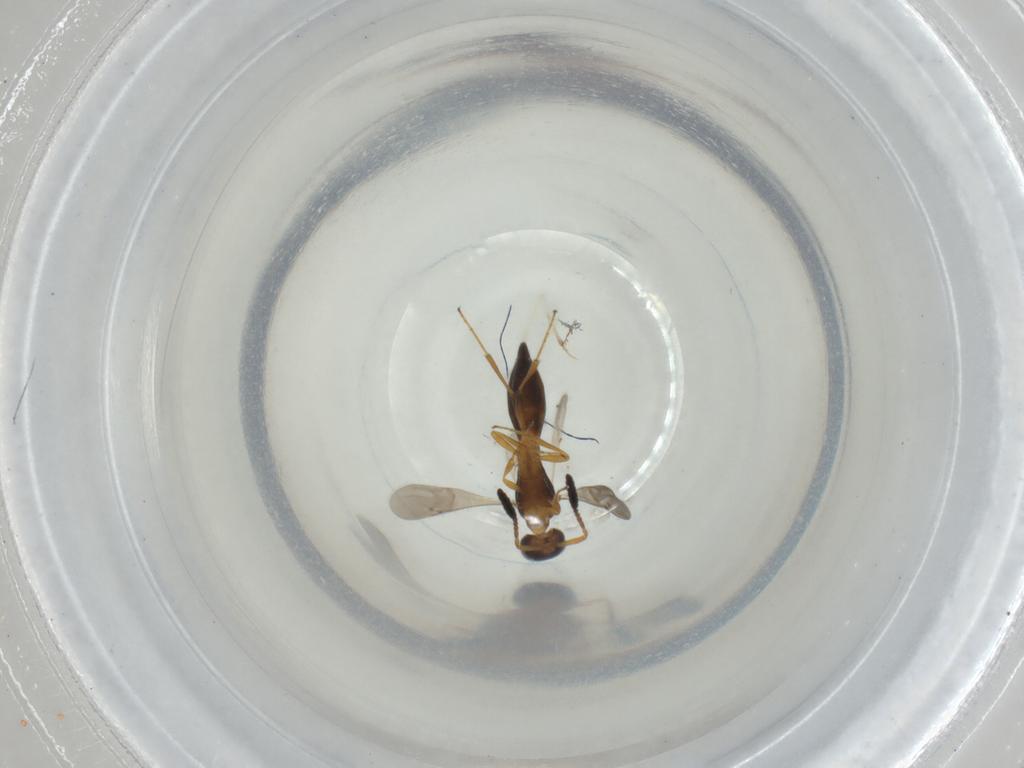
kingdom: Animalia
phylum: Arthropoda
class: Insecta
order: Hymenoptera
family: Scelionidae
